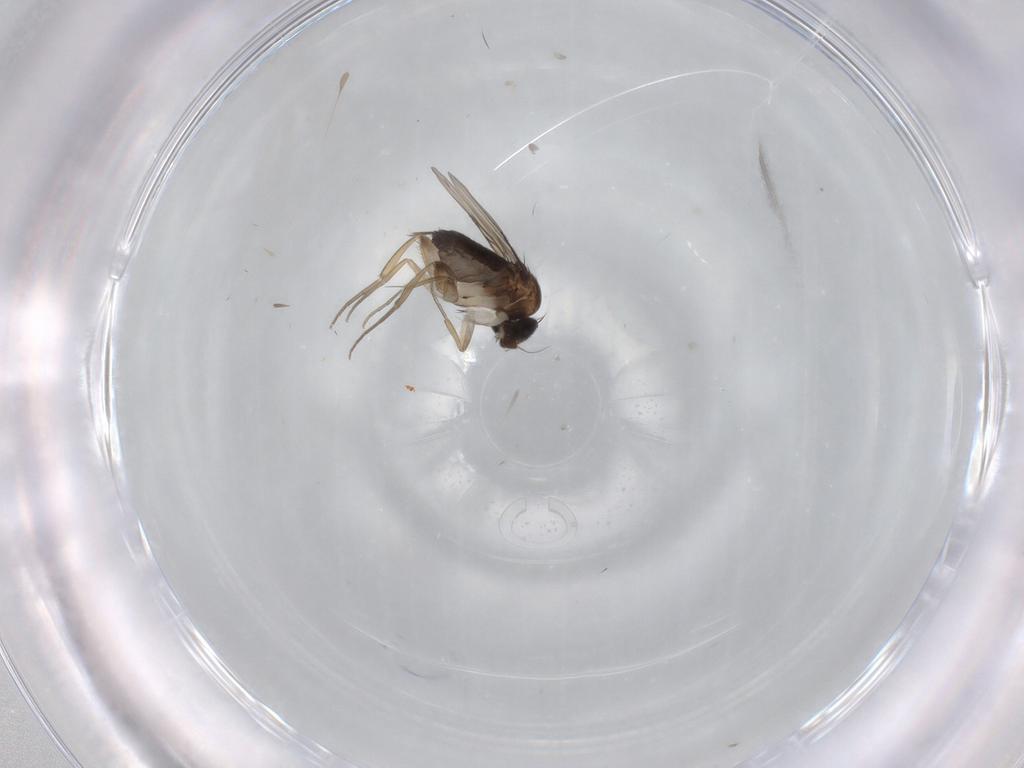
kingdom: Animalia
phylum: Arthropoda
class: Insecta
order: Diptera
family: Phoridae
